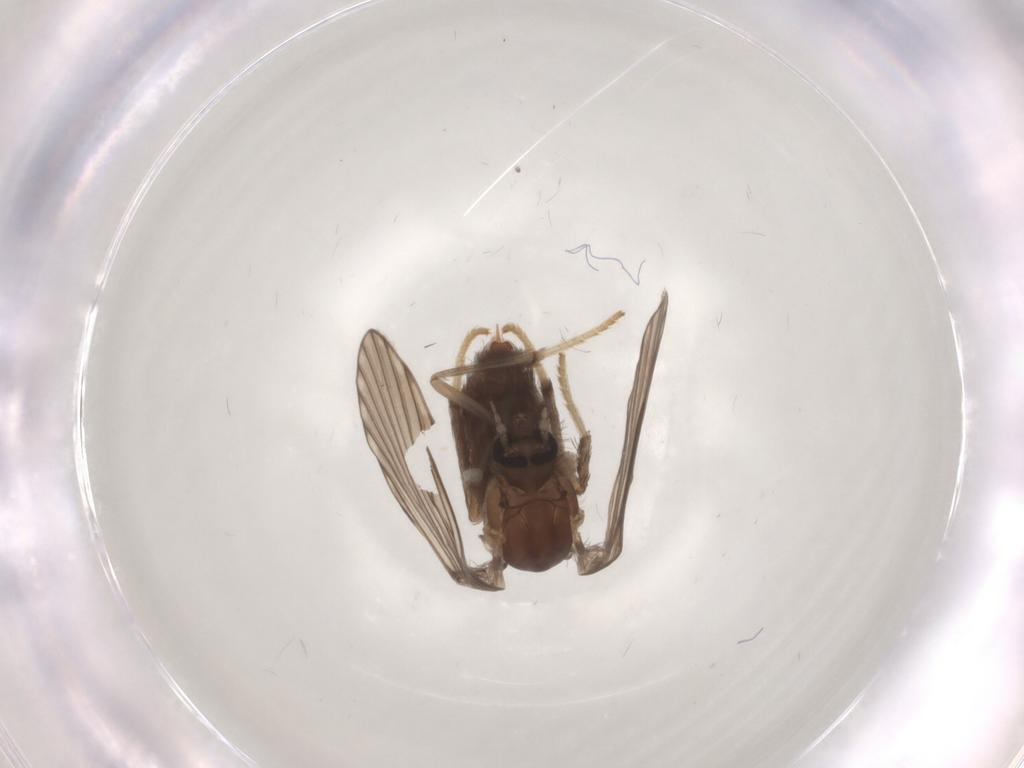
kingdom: Animalia
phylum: Arthropoda
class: Insecta
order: Diptera
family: Psychodidae
